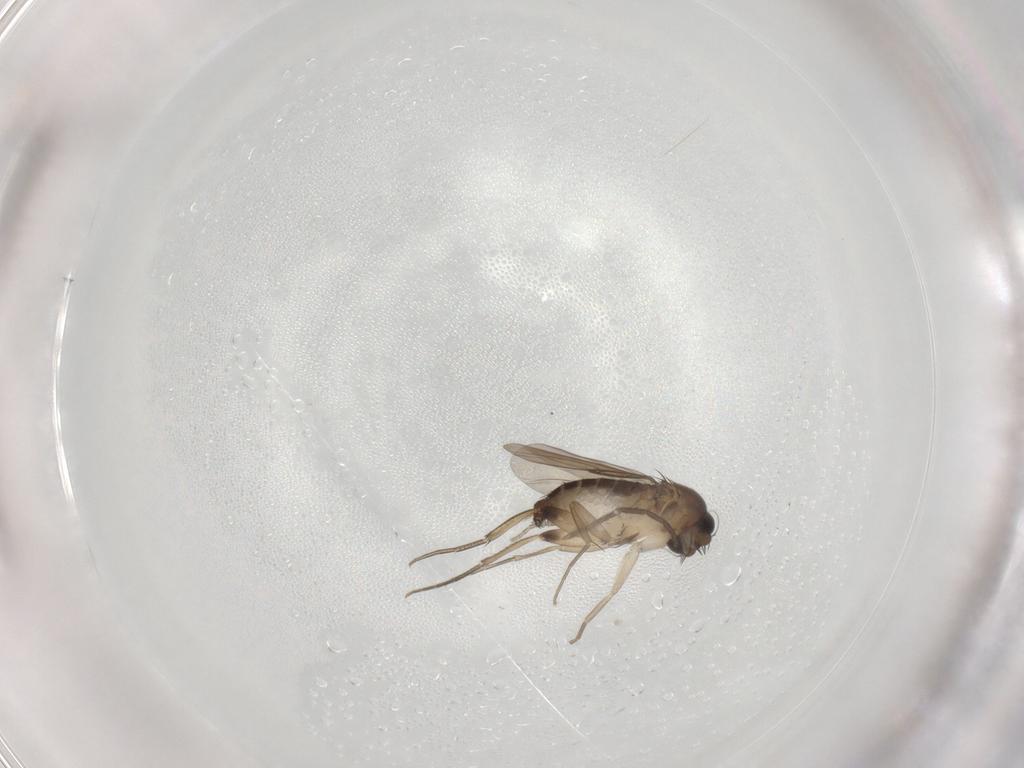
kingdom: Animalia
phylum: Arthropoda
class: Insecta
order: Diptera
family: Phoridae
